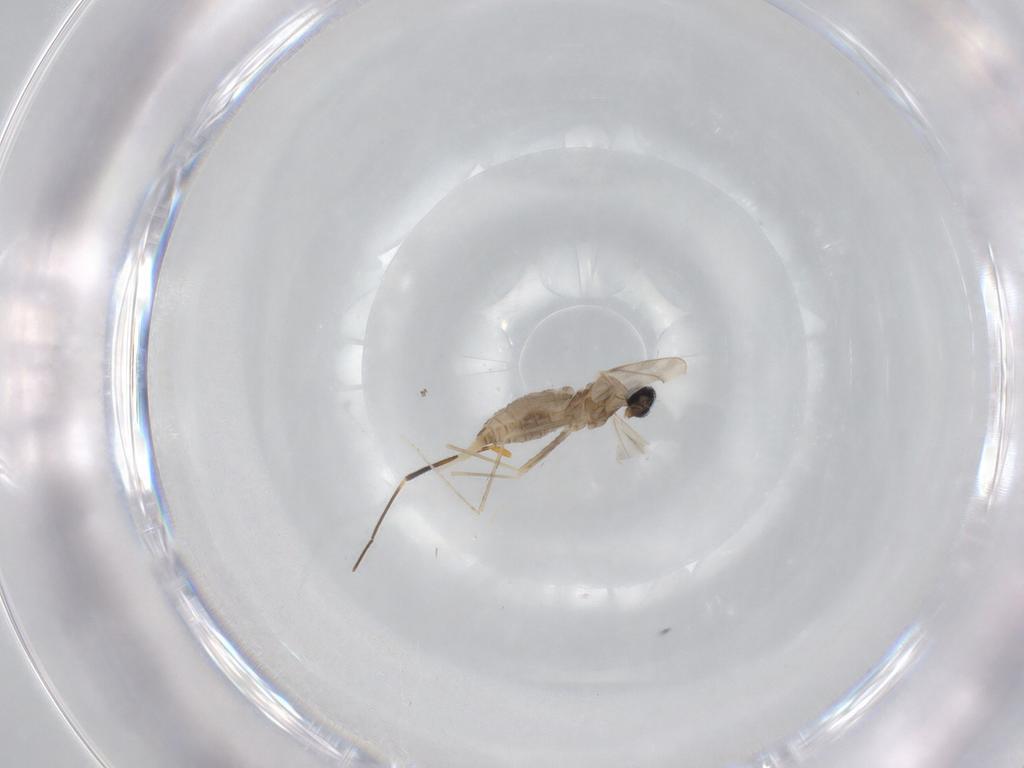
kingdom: Animalia
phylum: Arthropoda
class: Insecta
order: Diptera
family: Cecidomyiidae
